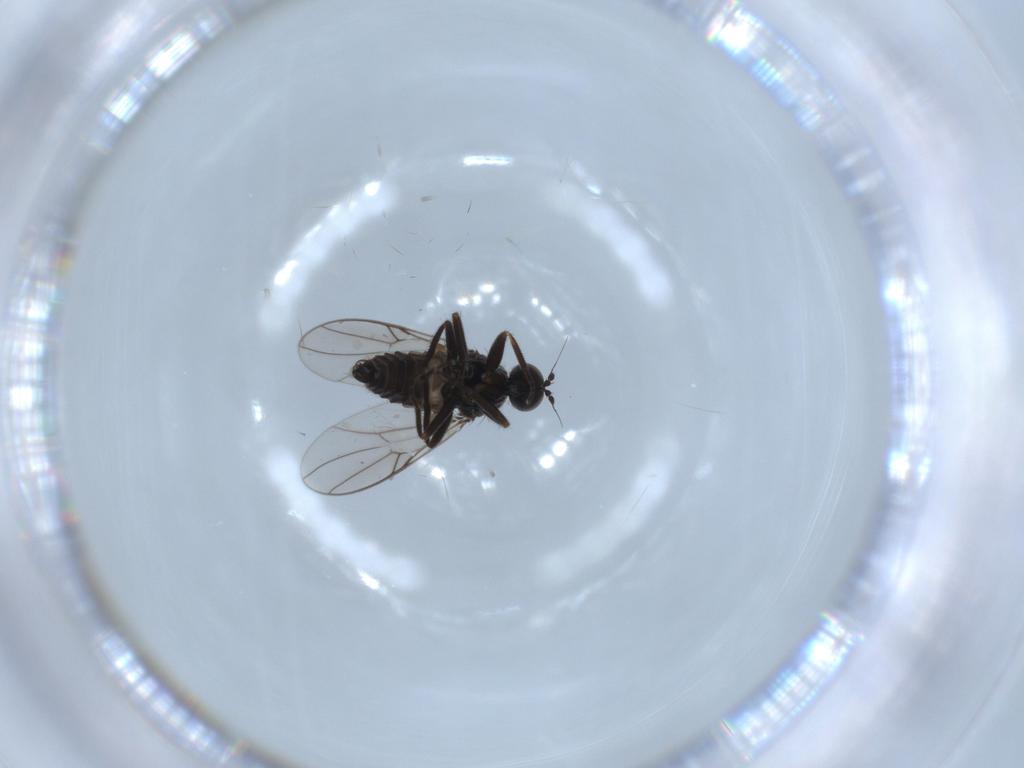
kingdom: Animalia
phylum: Arthropoda
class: Insecta
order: Diptera
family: Hybotidae
